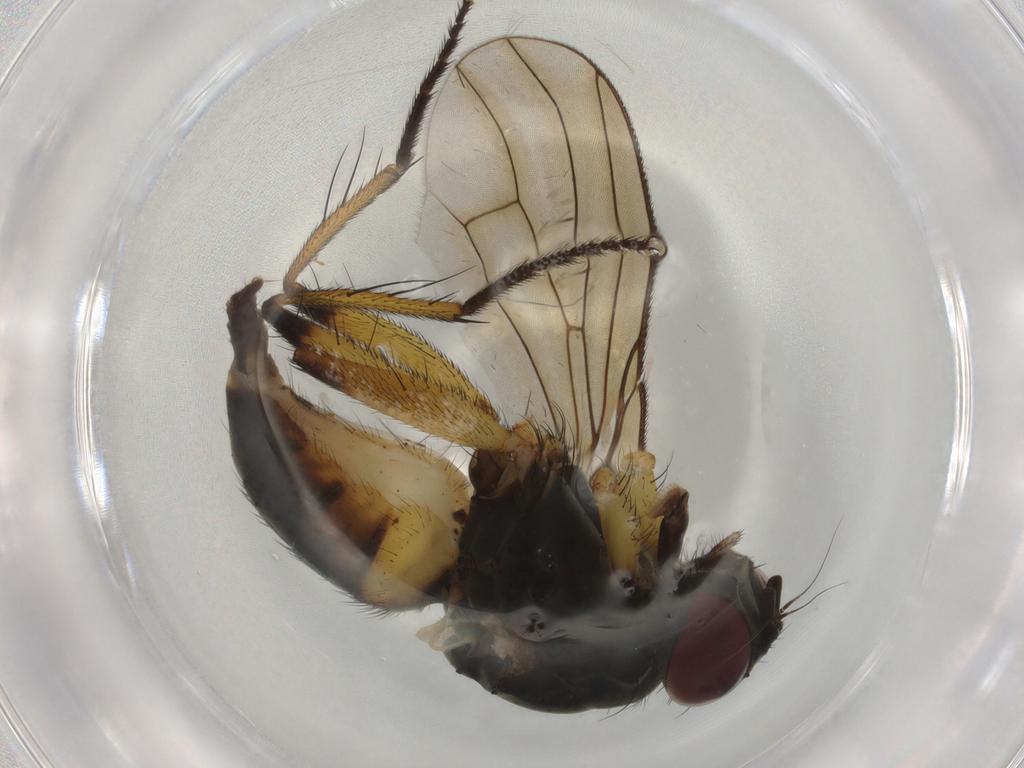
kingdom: Animalia
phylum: Arthropoda
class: Insecta
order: Diptera
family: Muscidae
